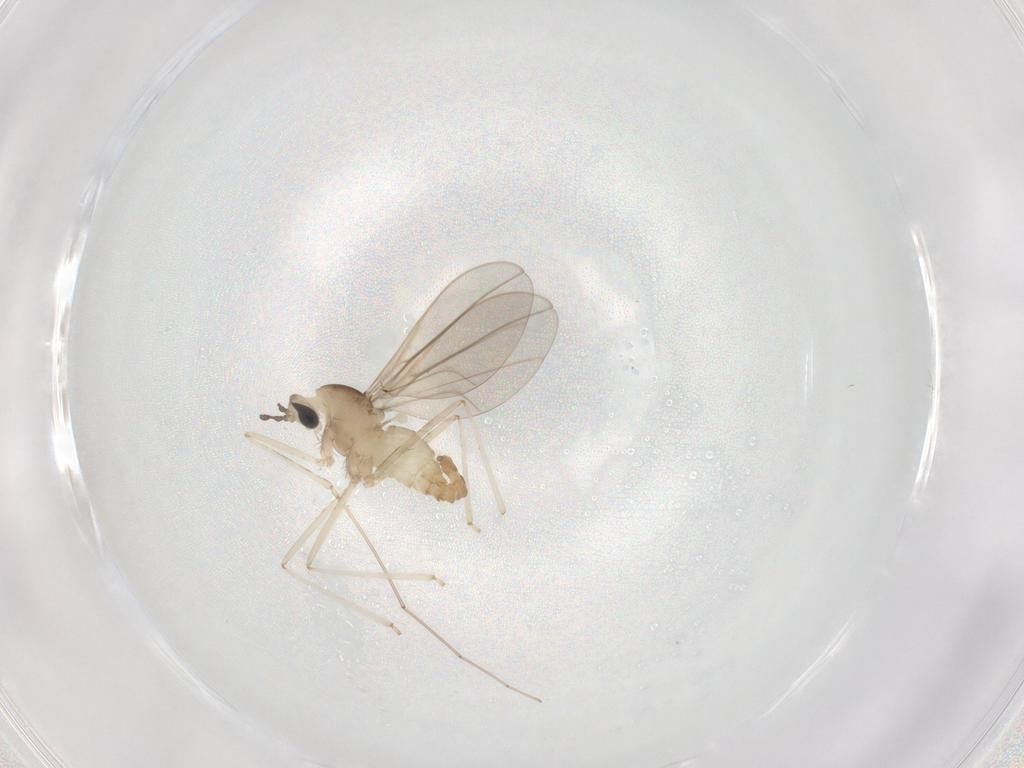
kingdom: Animalia
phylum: Arthropoda
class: Insecta
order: Diptera
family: Cecidomyiidae
